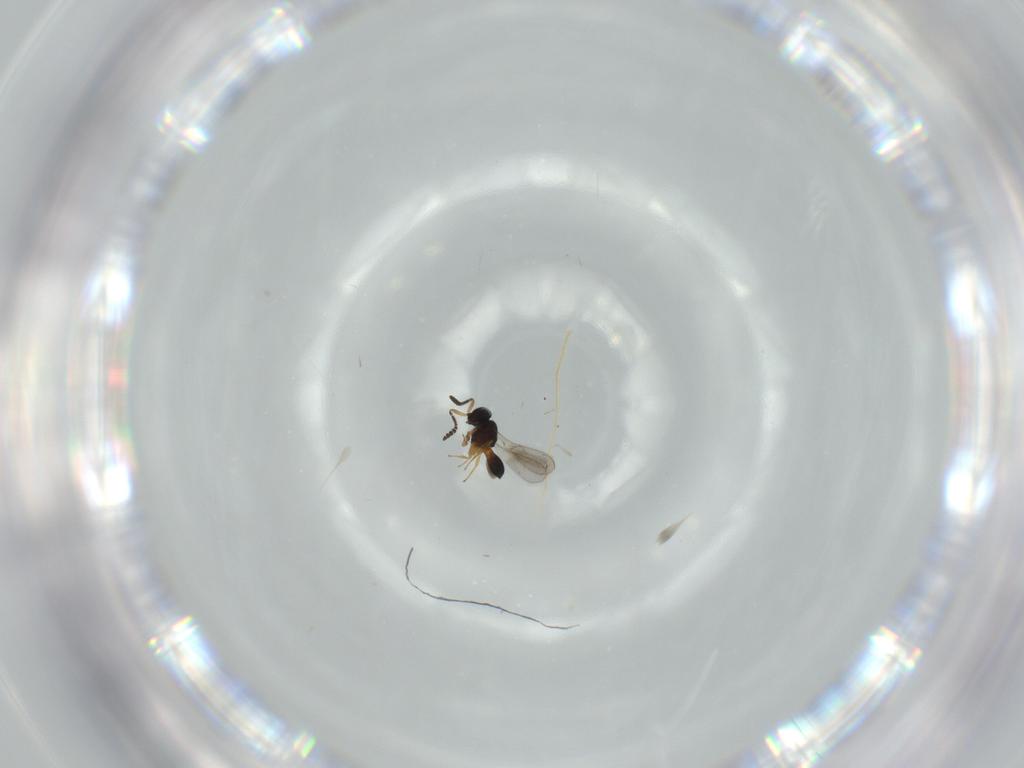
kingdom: Animalia
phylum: Arthropoda
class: Insecta
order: Hymenoptera
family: Scelionidae
